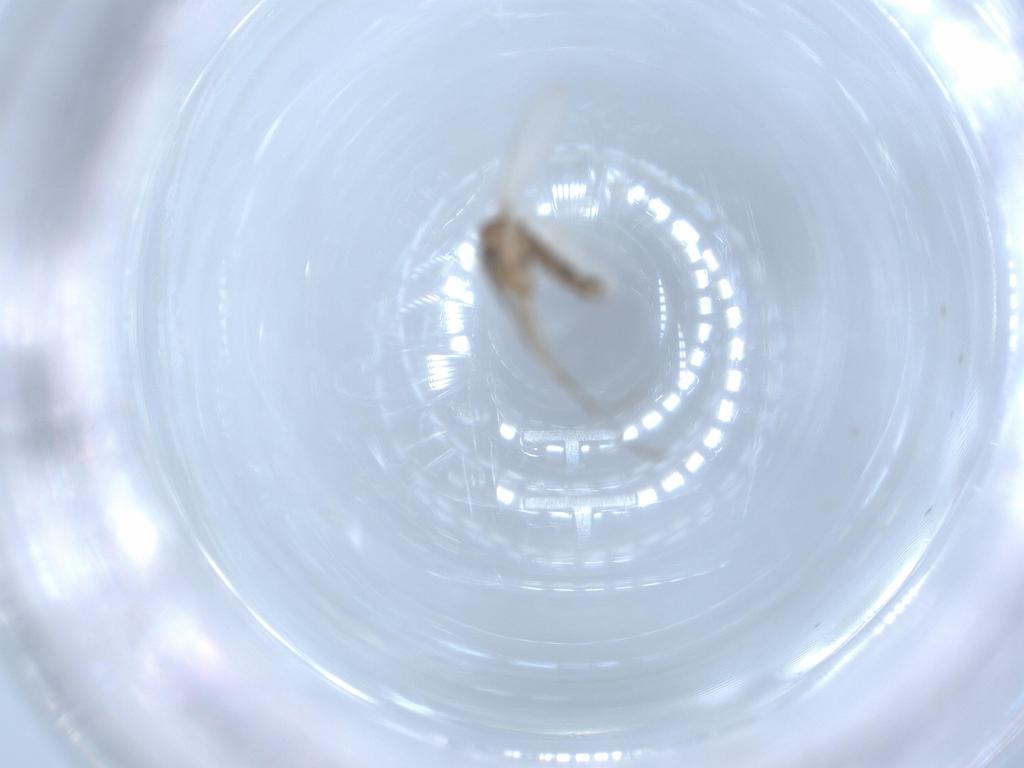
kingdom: Animalia
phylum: Arthropoda
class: Insecta
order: Diptera
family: Psychodidae
